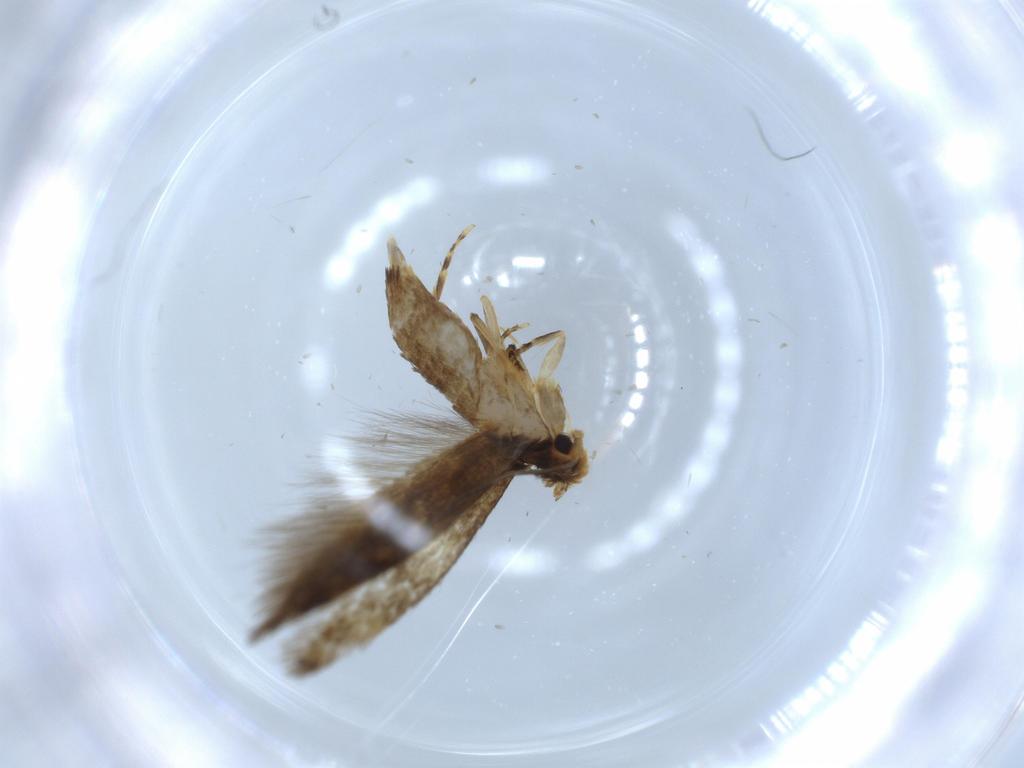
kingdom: Animalia
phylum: Arthropoda
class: Insecta
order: Lepidoptera
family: Tineidae
